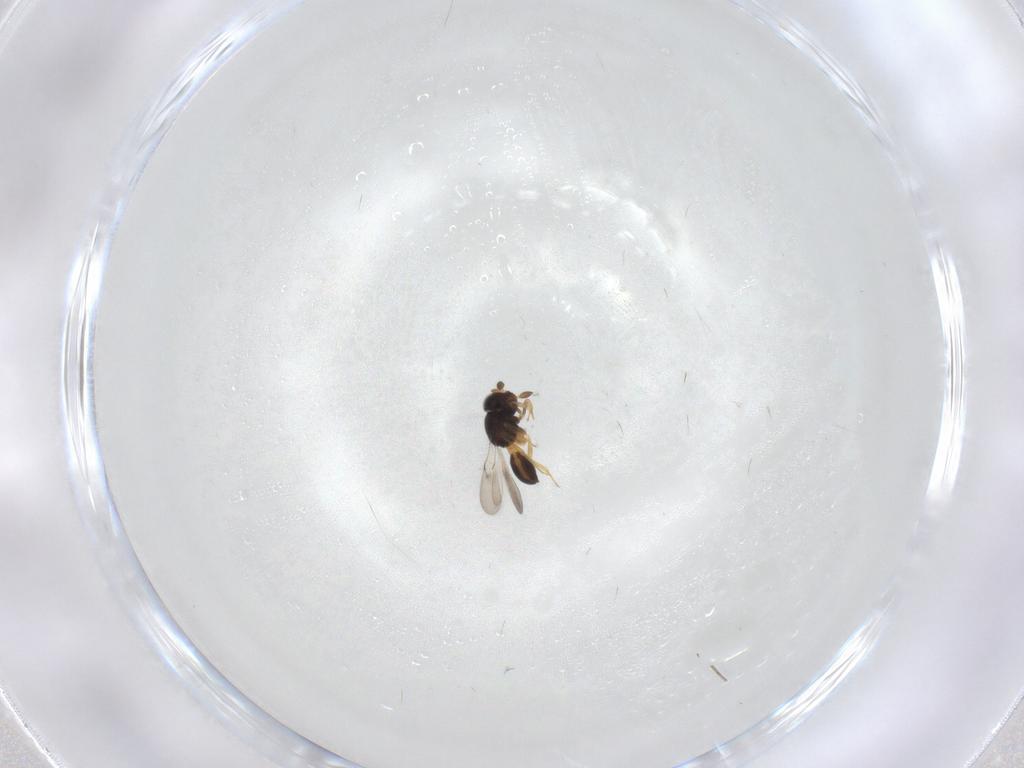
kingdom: Animalia
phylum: Arthropoda
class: Insecta
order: Hymenoptera
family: Scelionidae
